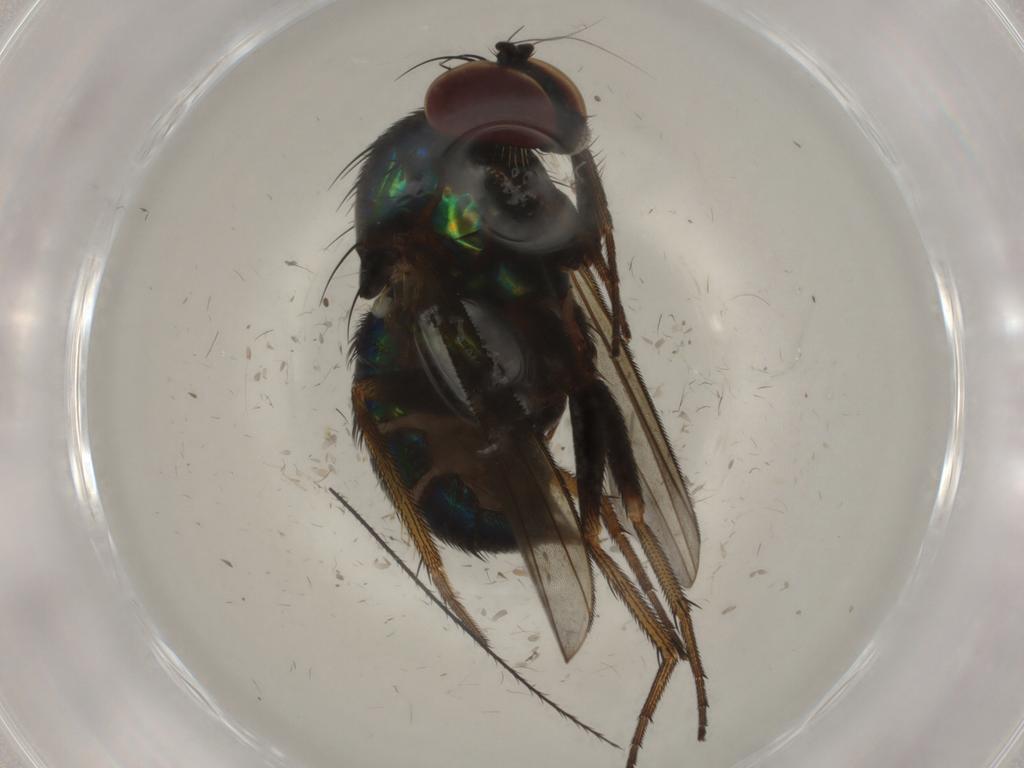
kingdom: Animalia
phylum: Arthropoda
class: Insecta
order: Diptera
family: Dolichopodidae
